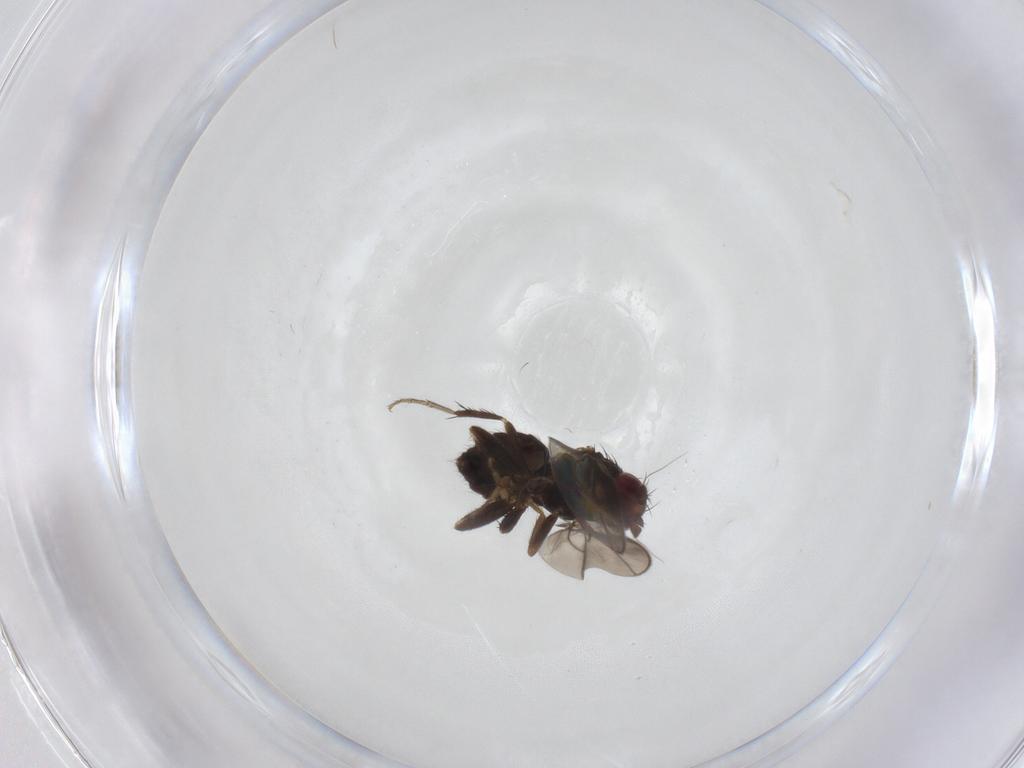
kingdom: Animalia
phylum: Arthropoda
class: Insecta
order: Diptera
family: Sphaeroceridae
